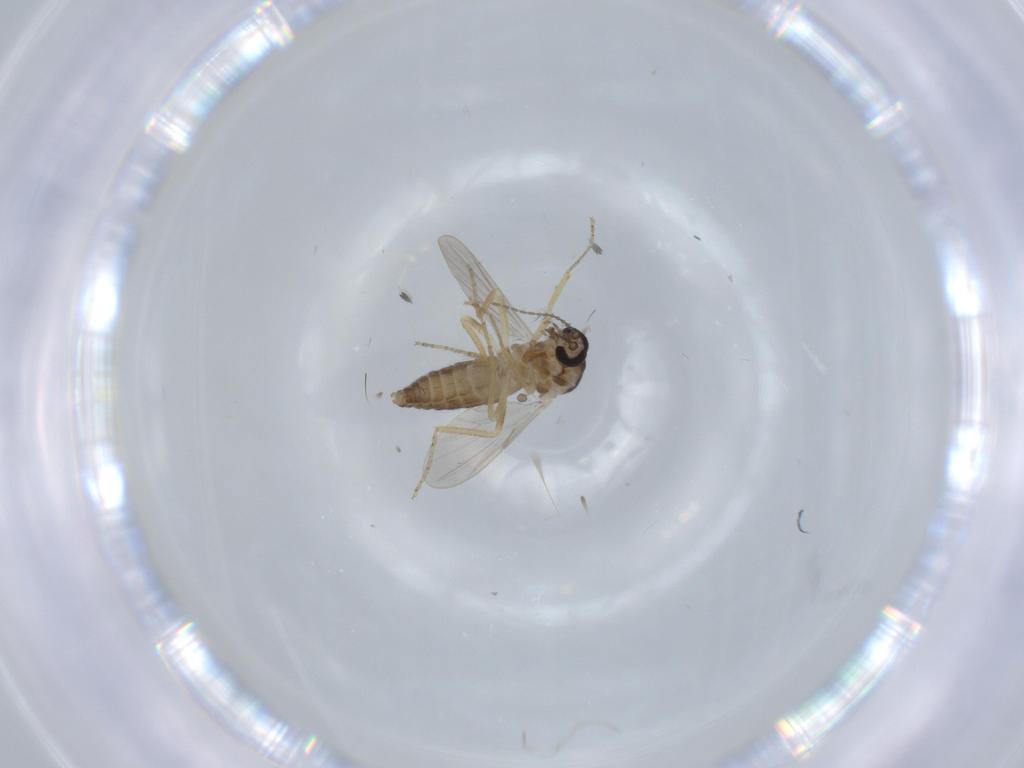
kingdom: Animalia
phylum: Arthropoda
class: Insecta
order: Diptera
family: Ceratopogonidae
